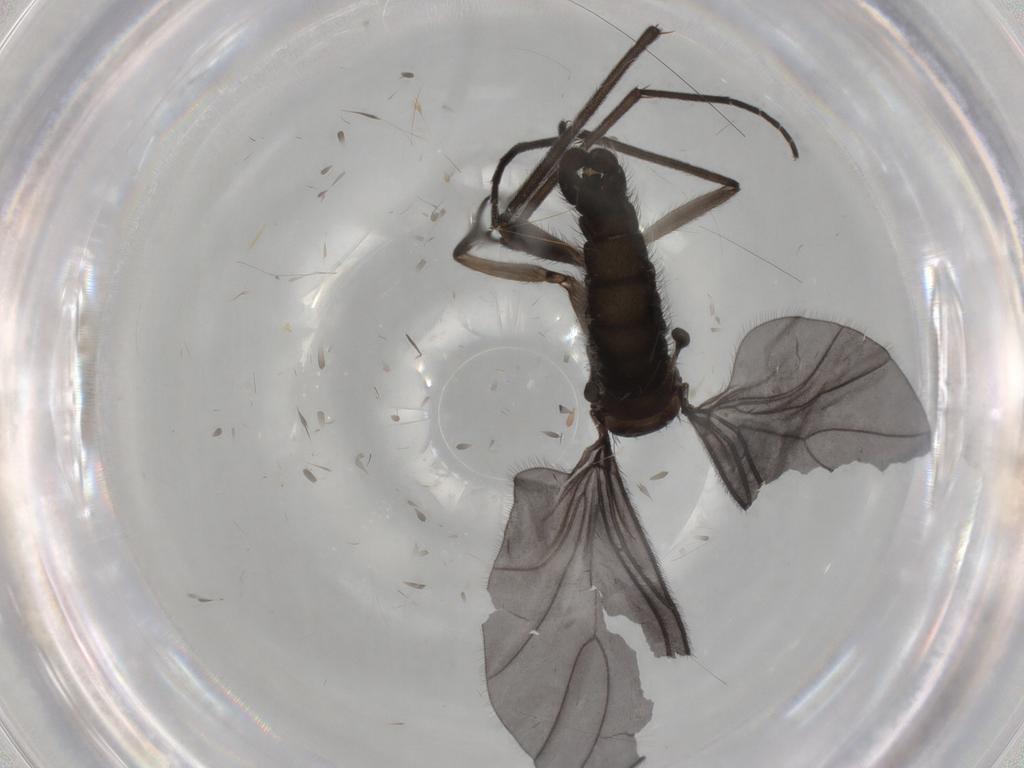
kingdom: Animalia
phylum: Arthropoda
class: Insecta
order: Diptera
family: Sciaridae
